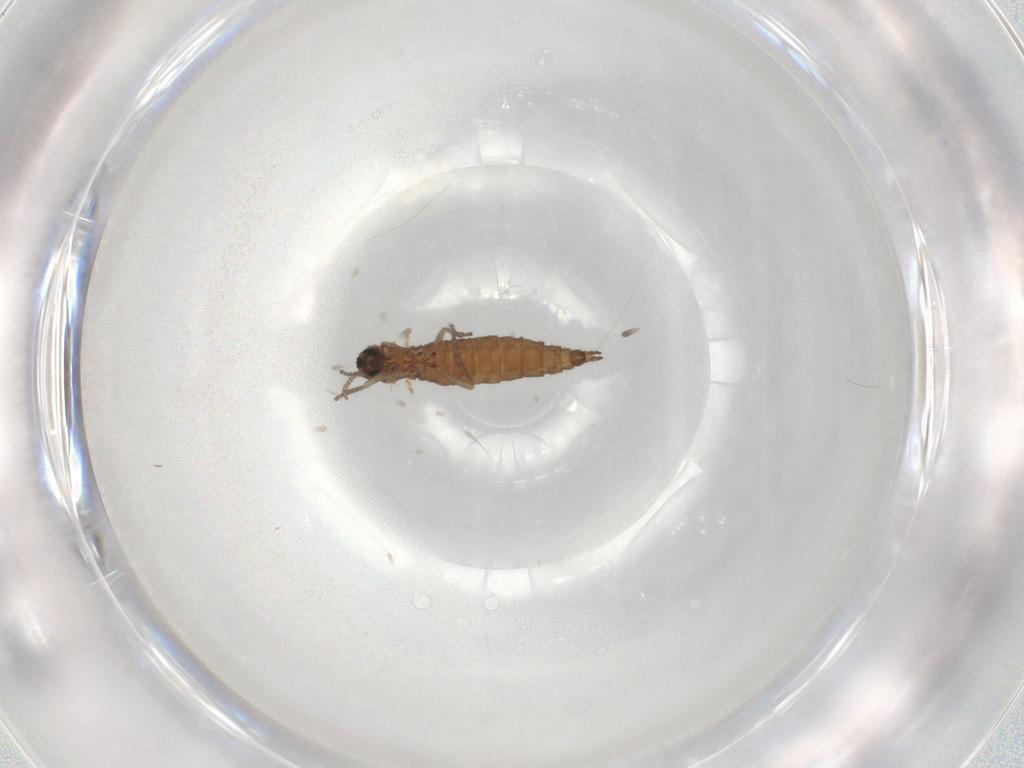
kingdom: Animalia
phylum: Arthropoda
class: Insecta
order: Diptera
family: Sciaridae
